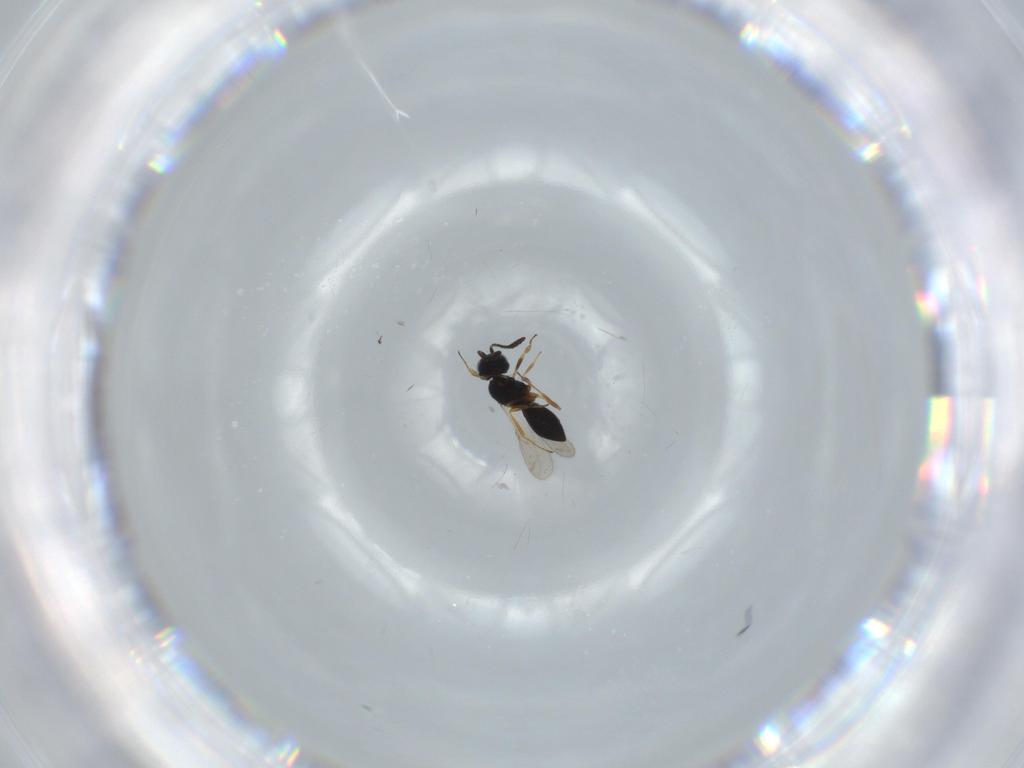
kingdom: Animalia
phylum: Arthropoda
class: Insecta
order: Hymenoptera
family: Scelionidae
